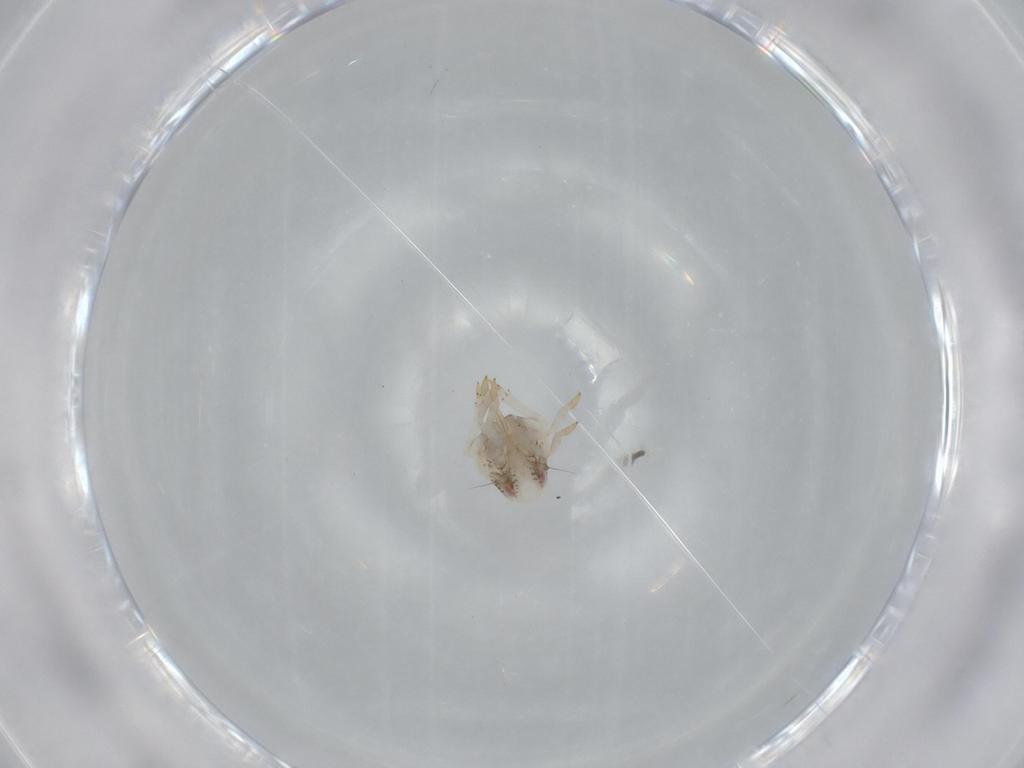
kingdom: Animalia
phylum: Arthropoda
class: Insecta
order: Hemiptera
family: Acanaloniidae
